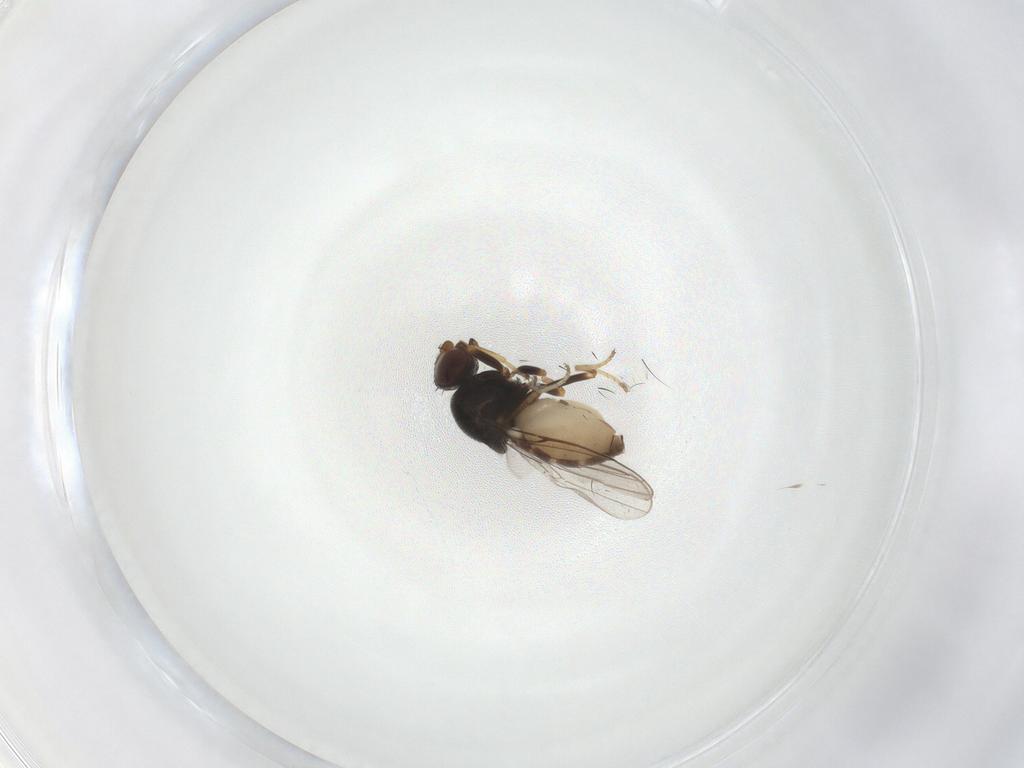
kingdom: Animalia
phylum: Arthropoda
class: Insecta
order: Diptera
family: Chloropidae
